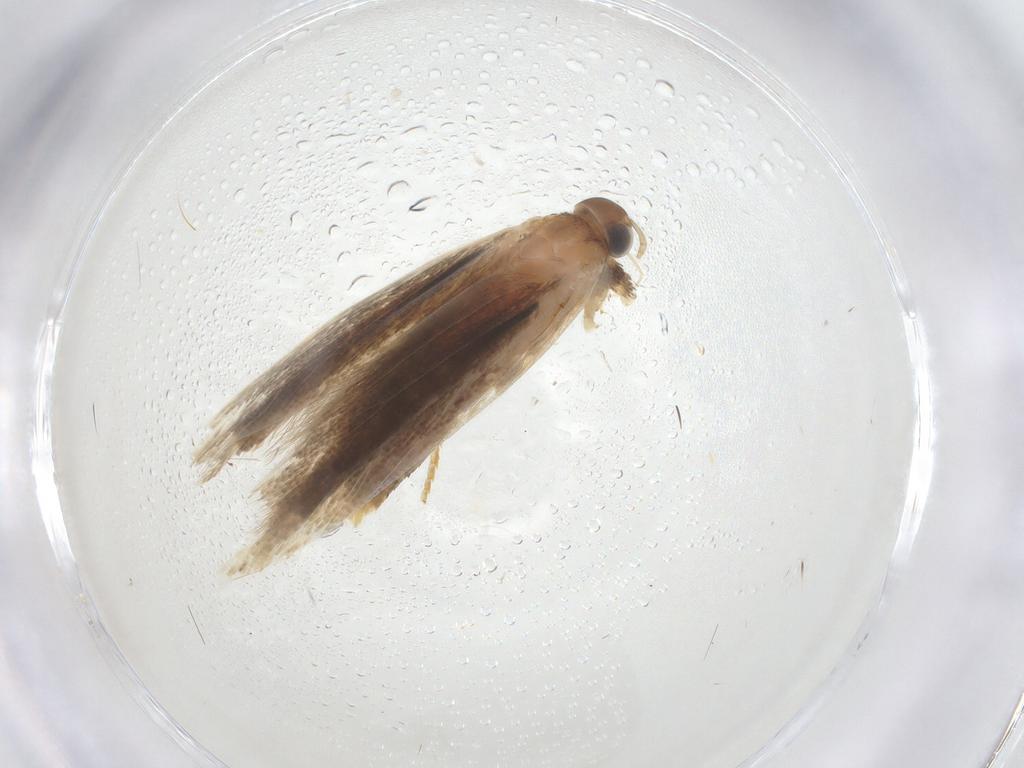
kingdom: Animalia
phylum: Arthropoda
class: Insecta
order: Lepidoptera
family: Gelechiidae
